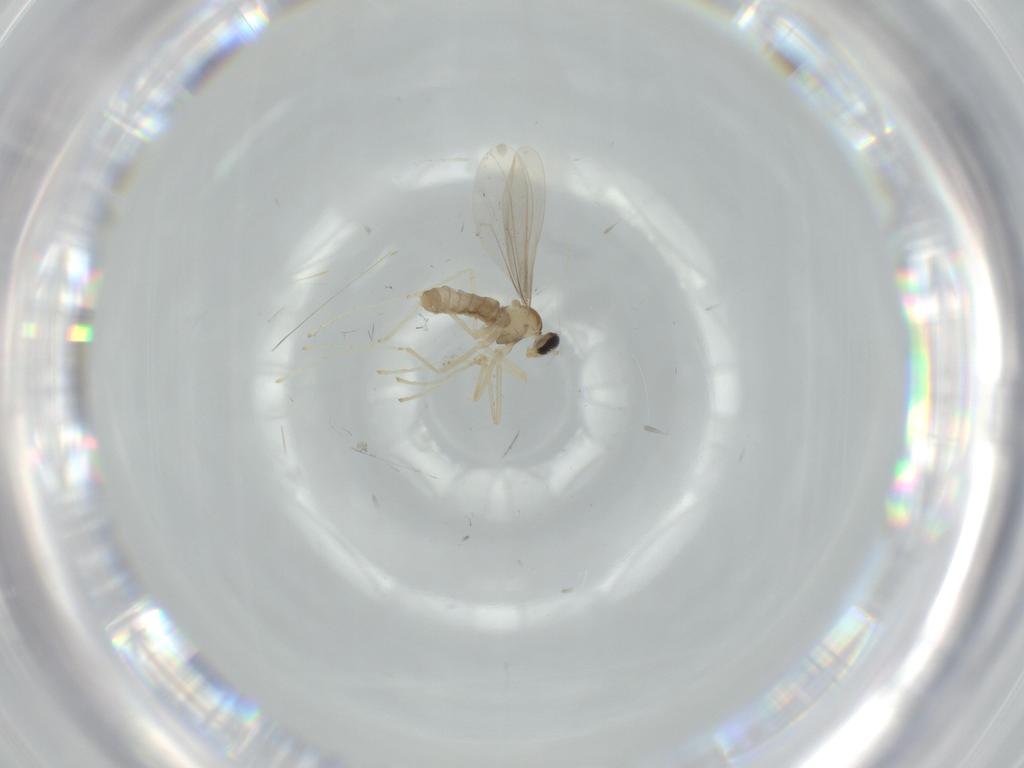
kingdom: Animalia
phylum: Arthropoda
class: Insecta
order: Diptera
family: Cecidomyiidae
